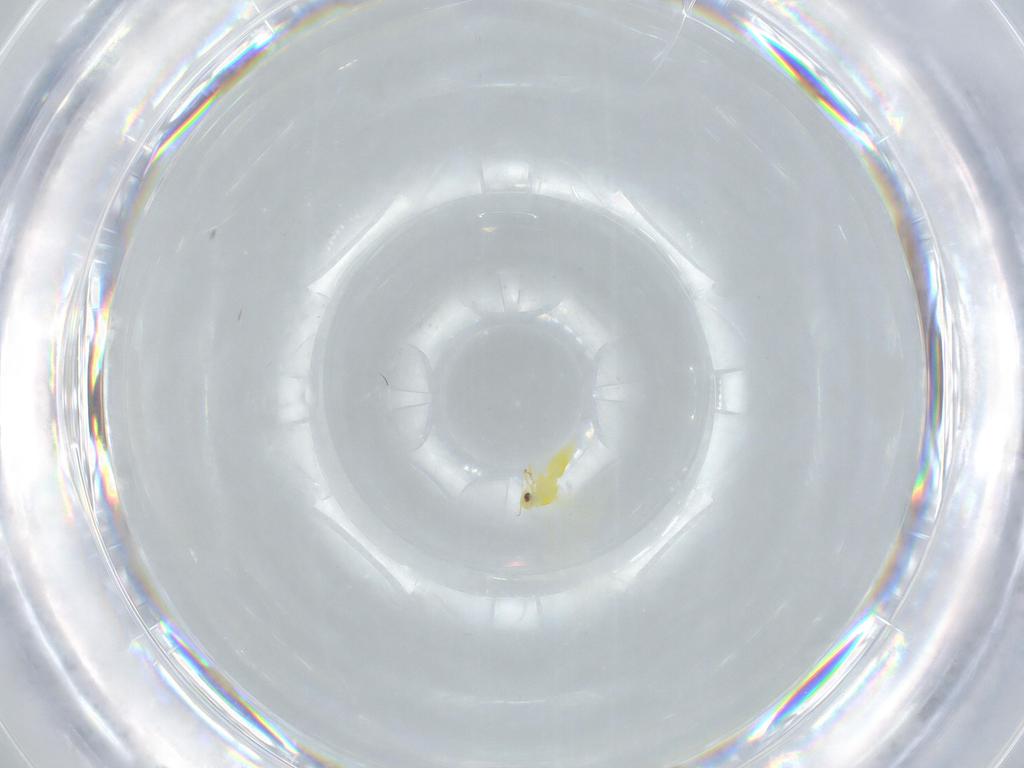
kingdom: Animalia
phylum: Arthropoda
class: Insecta
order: Hemiptera
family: Aleyrodidae
